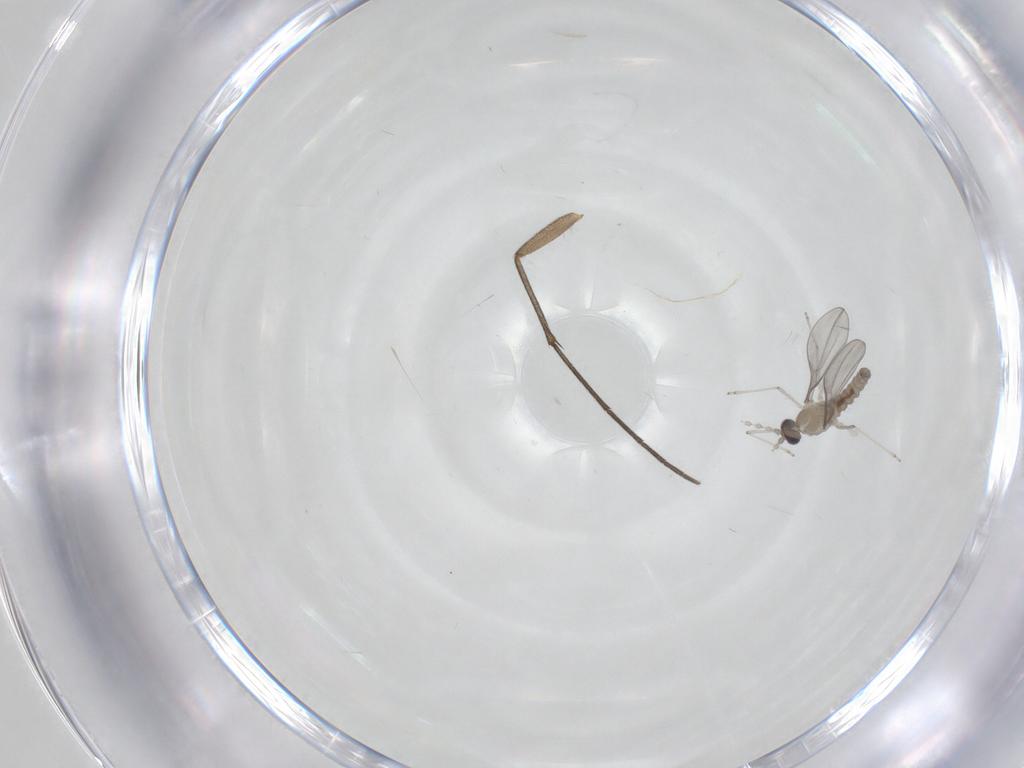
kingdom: Animalia
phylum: Arthropoda
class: Insecta
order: Diptera
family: Cecidomyiidae
